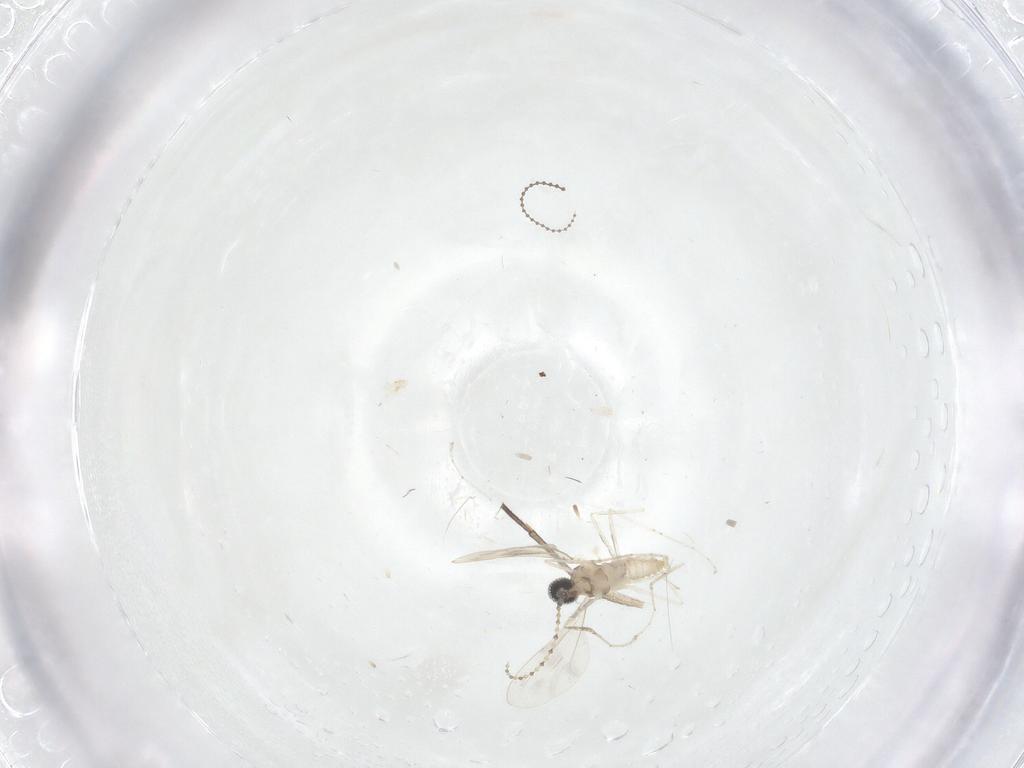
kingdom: Animalia
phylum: Arthropoda
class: Insecta
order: Diptera
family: Cecidomyiidae
